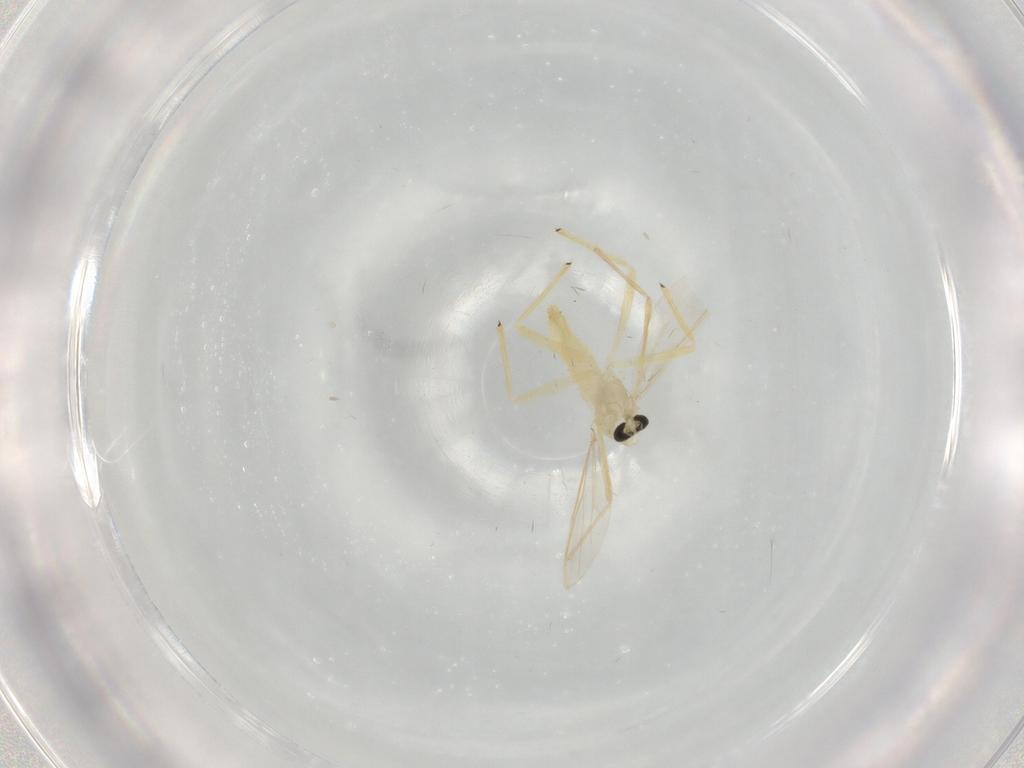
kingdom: Animalia
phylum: Arthropoda
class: Insecta
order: Diptera
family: Chironomidae
